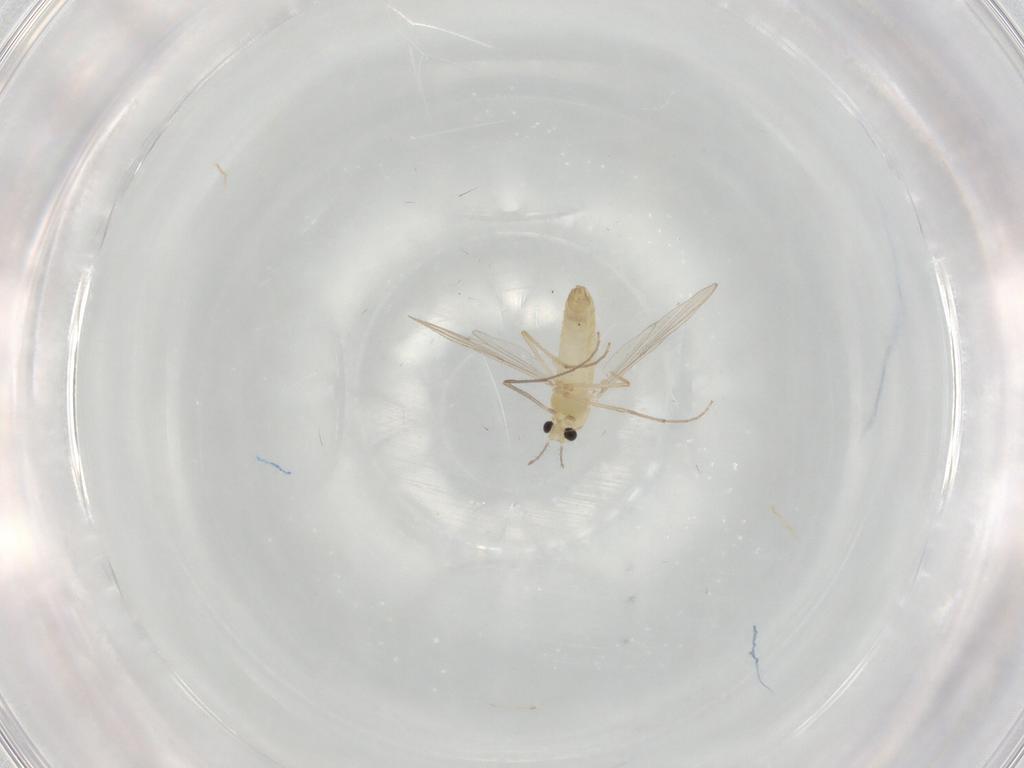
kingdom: Animalia
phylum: Arthropoda
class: Insecta
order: Diptera
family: Chironomidae
